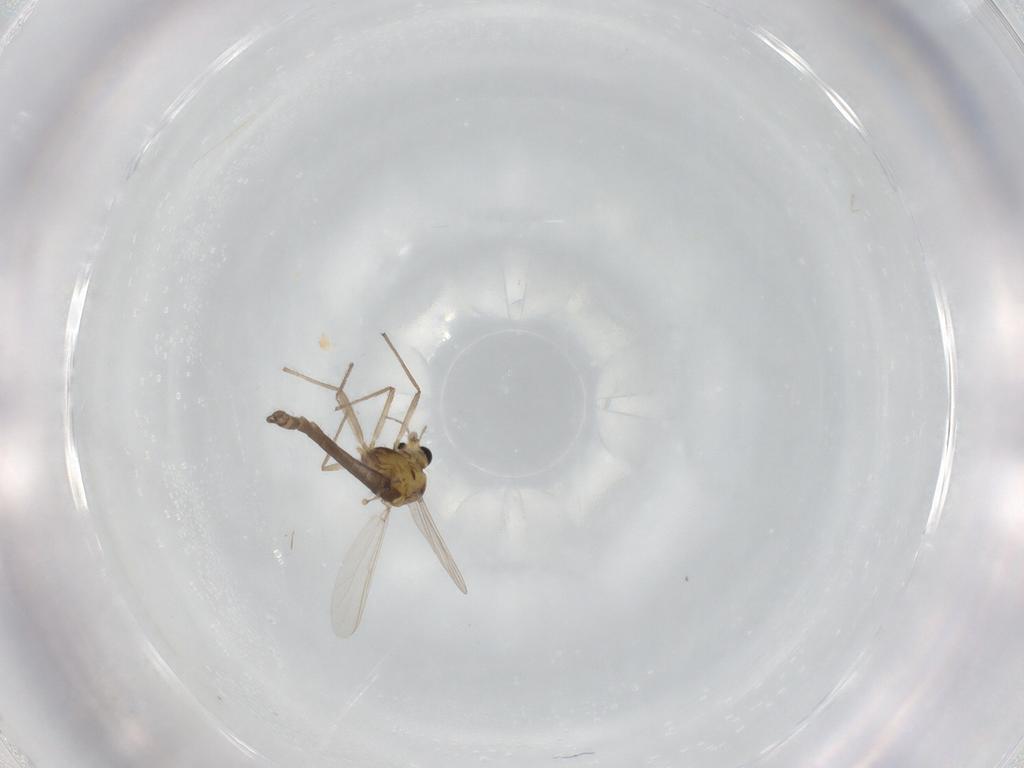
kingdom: Animalia
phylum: Arthropoda
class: Insecta
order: Diptera
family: Chironomidae
